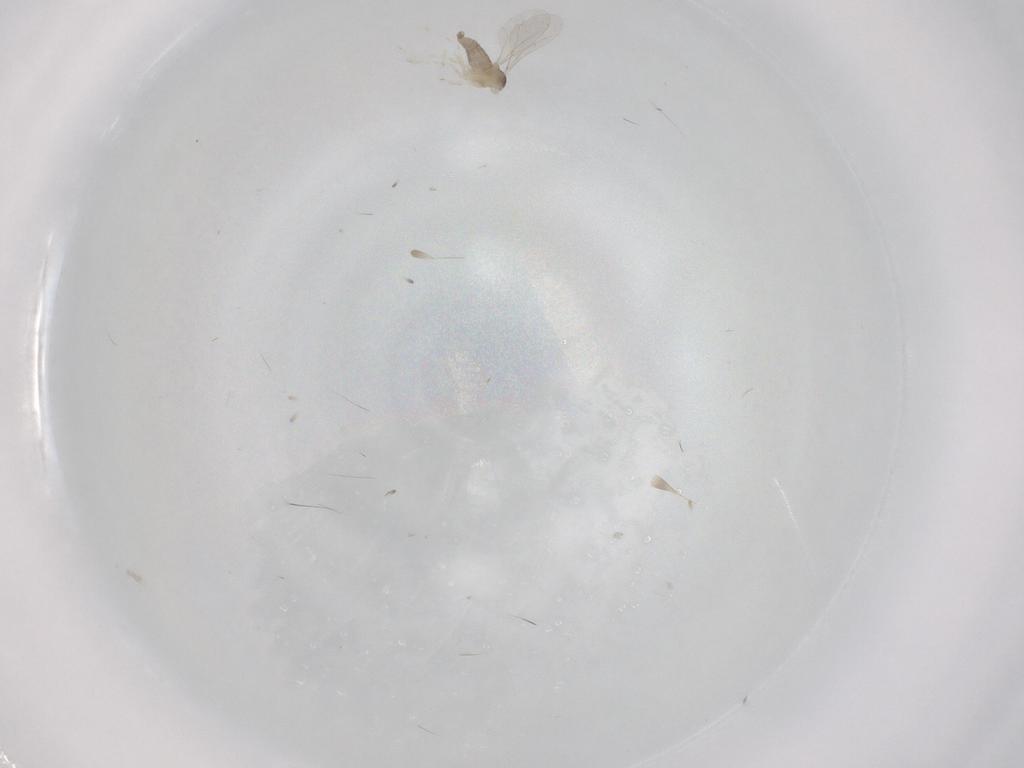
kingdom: Animalia
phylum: Arthropoda
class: Insecta
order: Diptera
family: Cecidomyiidae
